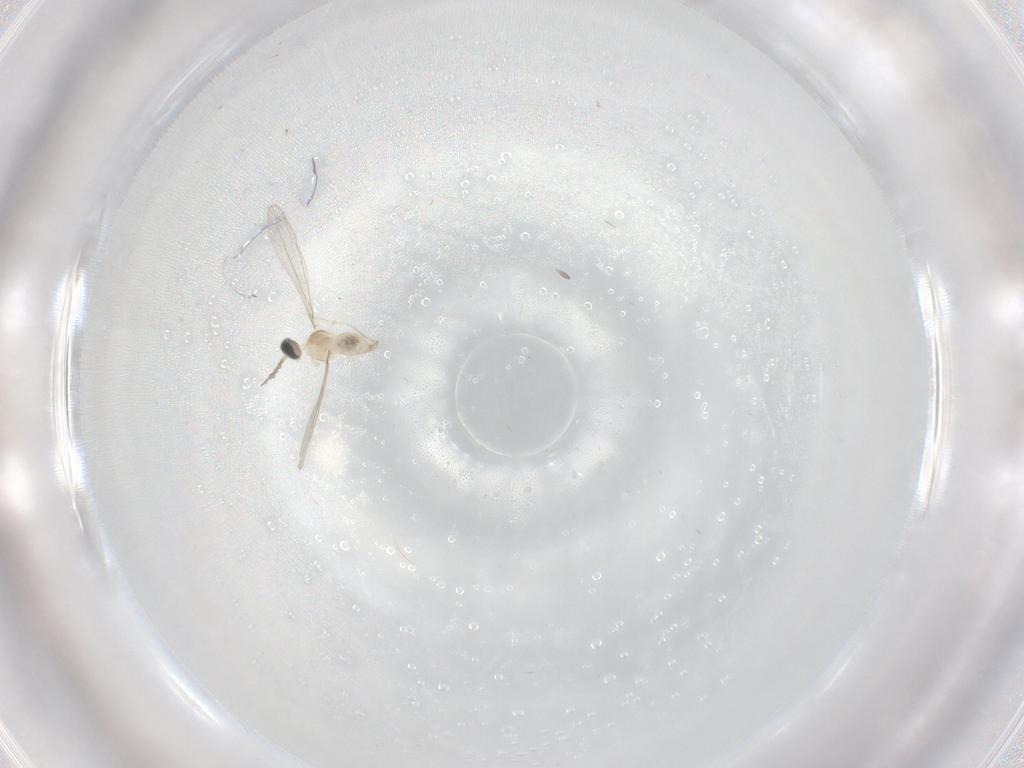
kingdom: Animalia
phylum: Arthropoda
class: Insecta
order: Diptera
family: Cecidomyiidae
